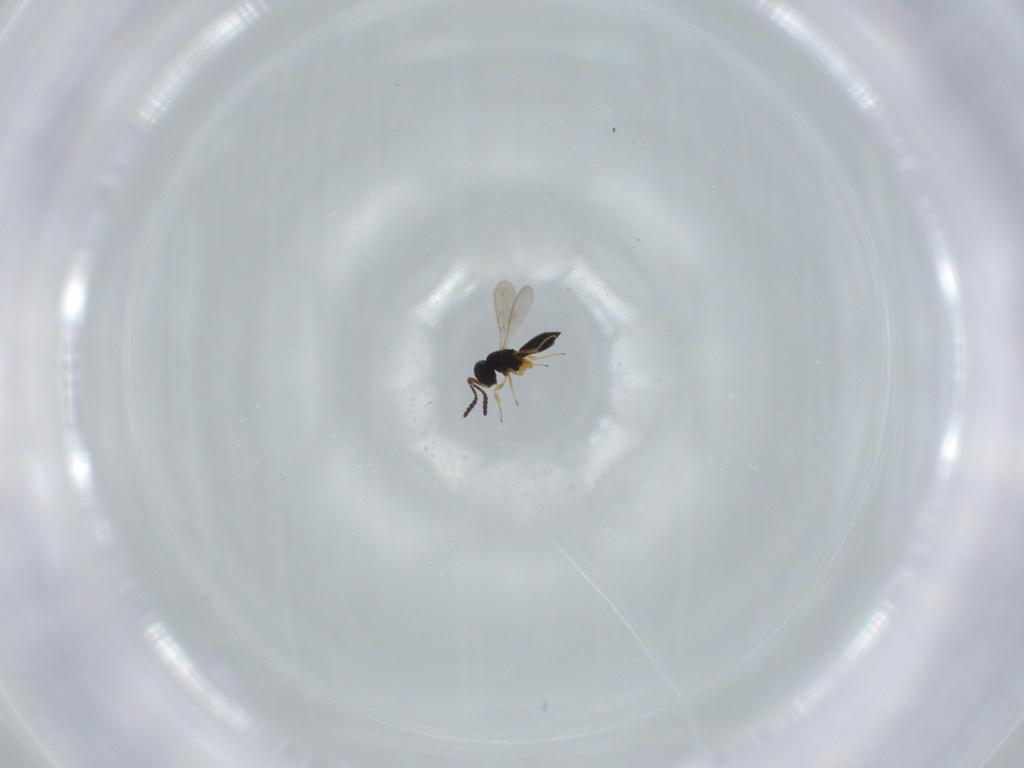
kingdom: Animalia
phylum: Arthropoda
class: Insecta
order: Hymenoptera
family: Scelionidae
